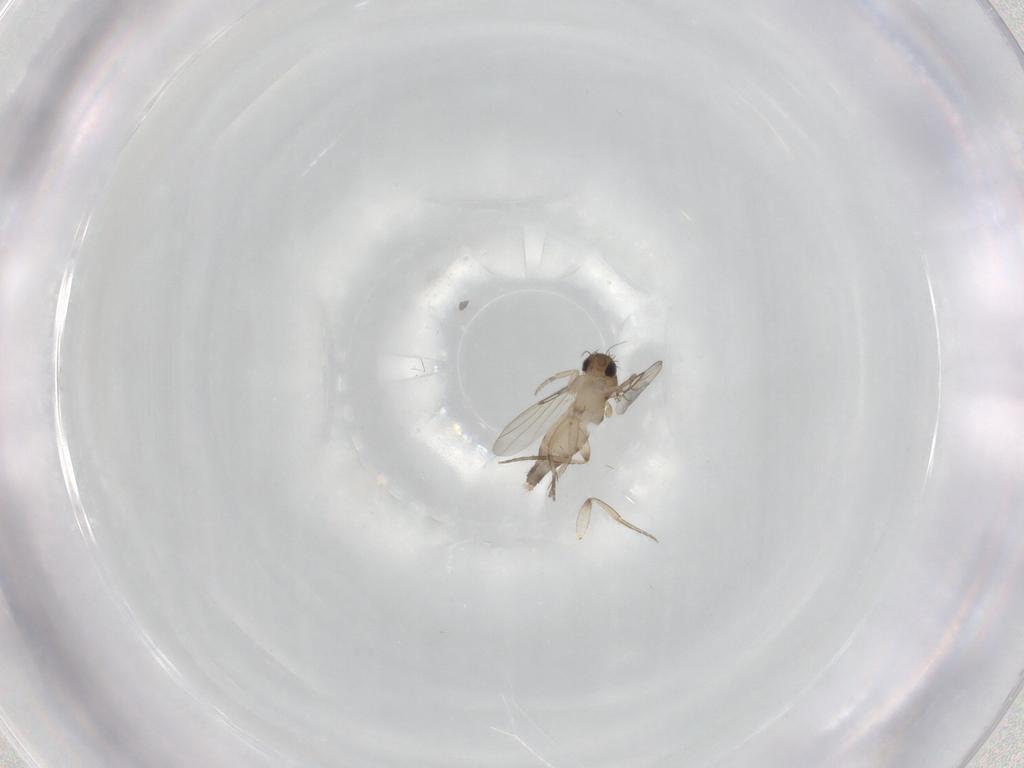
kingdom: Animalia
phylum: Arthropoda
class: Insecta
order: Diptera
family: Phoridae
